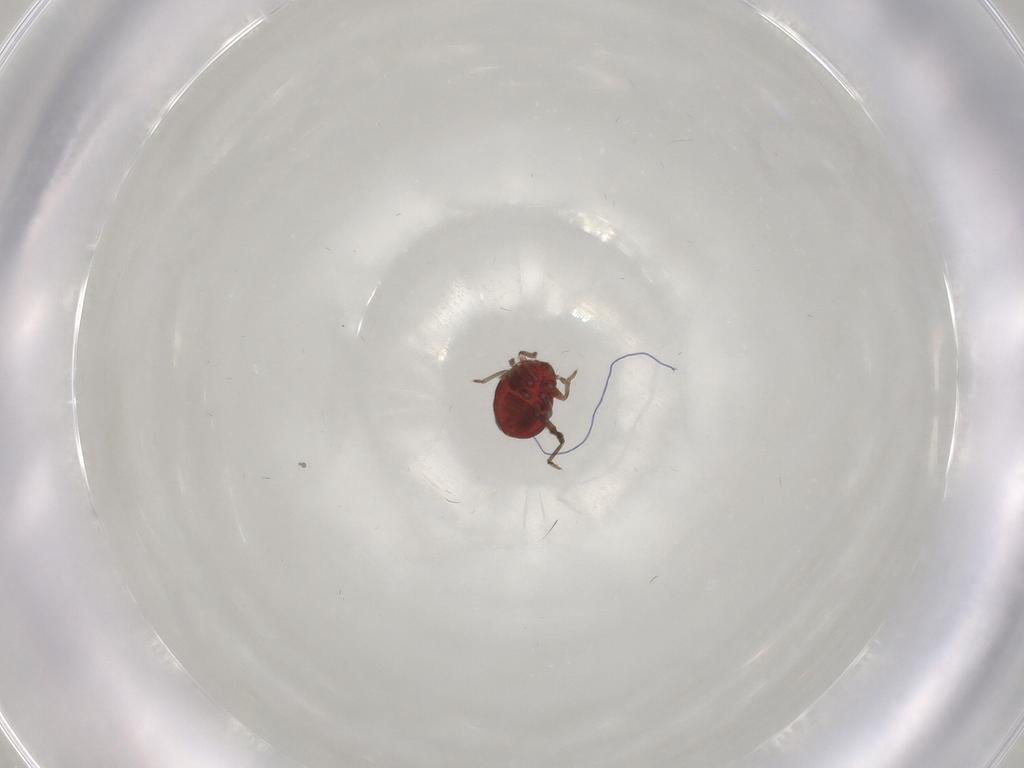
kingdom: Animalia
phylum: Arthropoda
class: Insecta
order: Hemiptera
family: Schizopteridae
